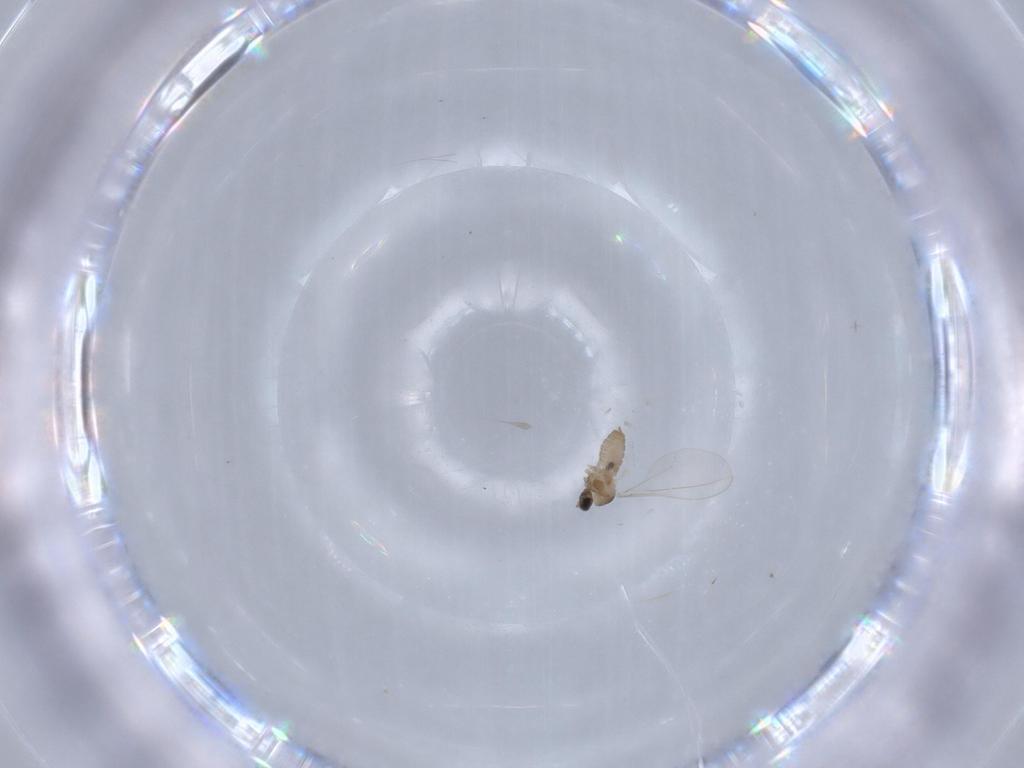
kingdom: Animalia
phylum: Arthropoda
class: Insecta
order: Diptera
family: Cecidomyiidae
